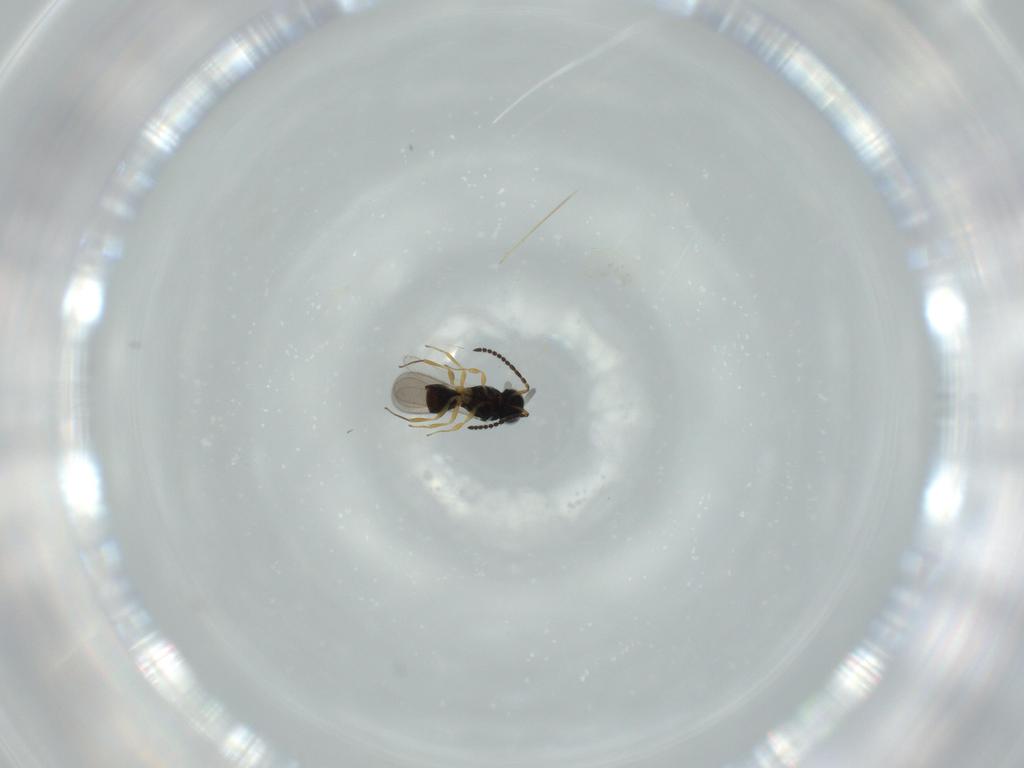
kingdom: Animalia
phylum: Arthropoda
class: Insecta
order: Hymenoptera
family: Scelionidae
